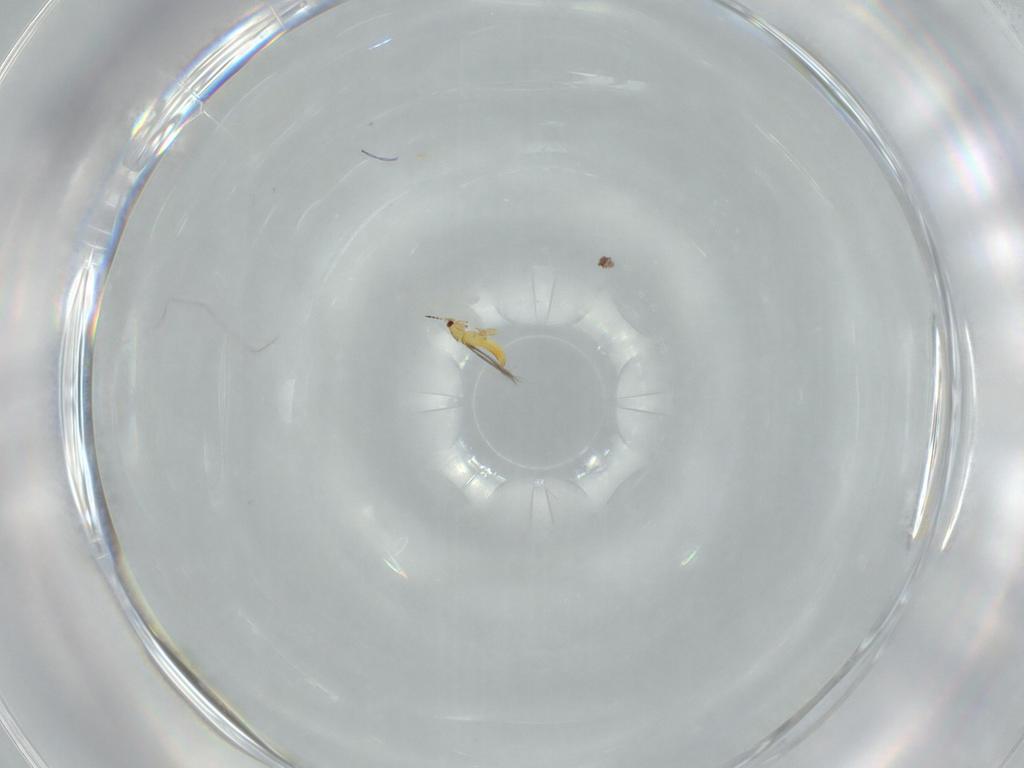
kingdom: Animalia
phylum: Arthropoda
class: Insecta
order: Thysanoptera
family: Thripidae
